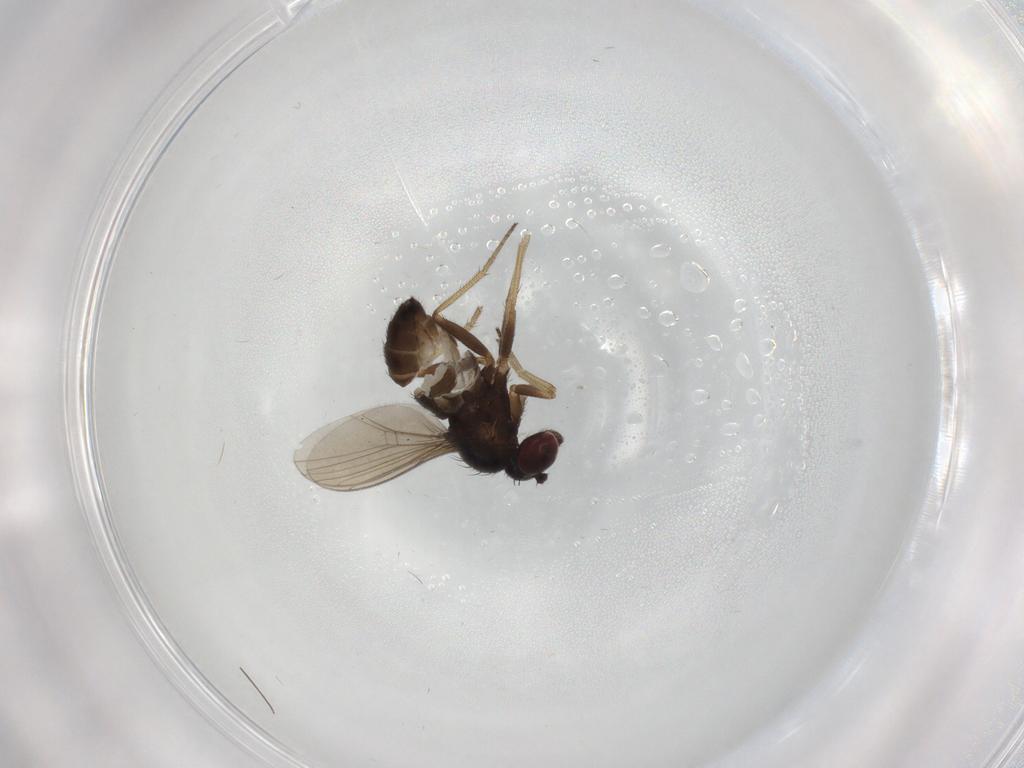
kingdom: Animalia
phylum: Arthropoda
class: Insecta
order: Diptera
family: Dolichopodidae
